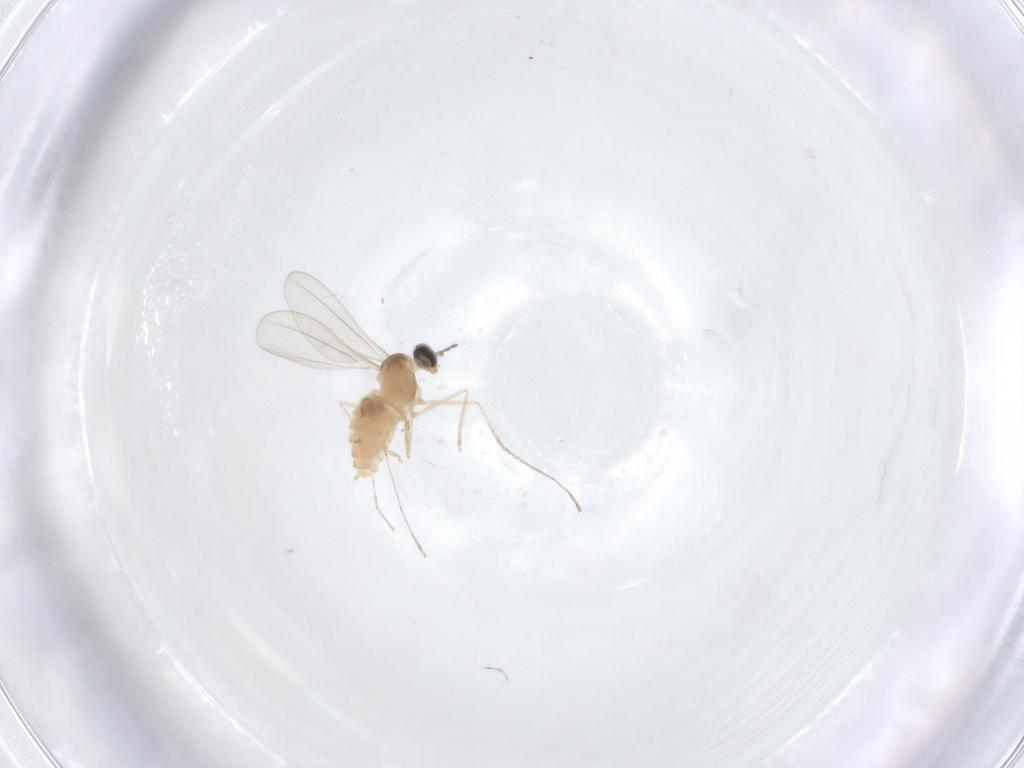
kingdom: Animalia
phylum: Arthropoda
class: Insecta
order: Diptera
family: Cecidomyiidae
